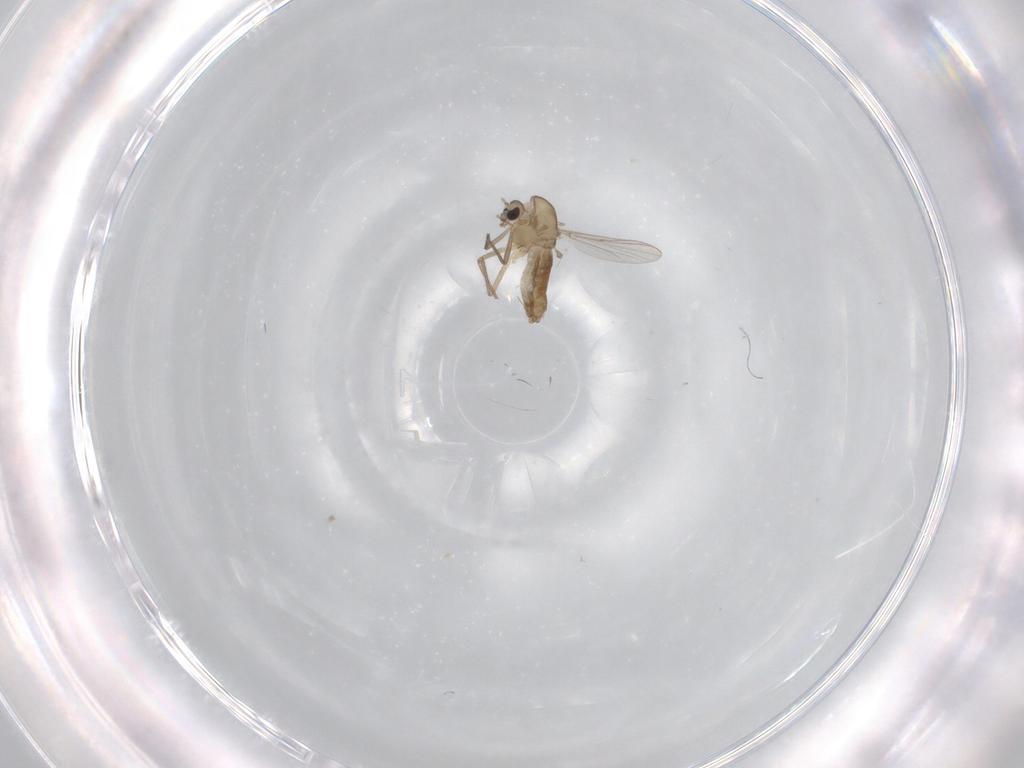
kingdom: Animalia
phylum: Arthropoda
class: Insecta
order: Diptera
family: Chironomidae
